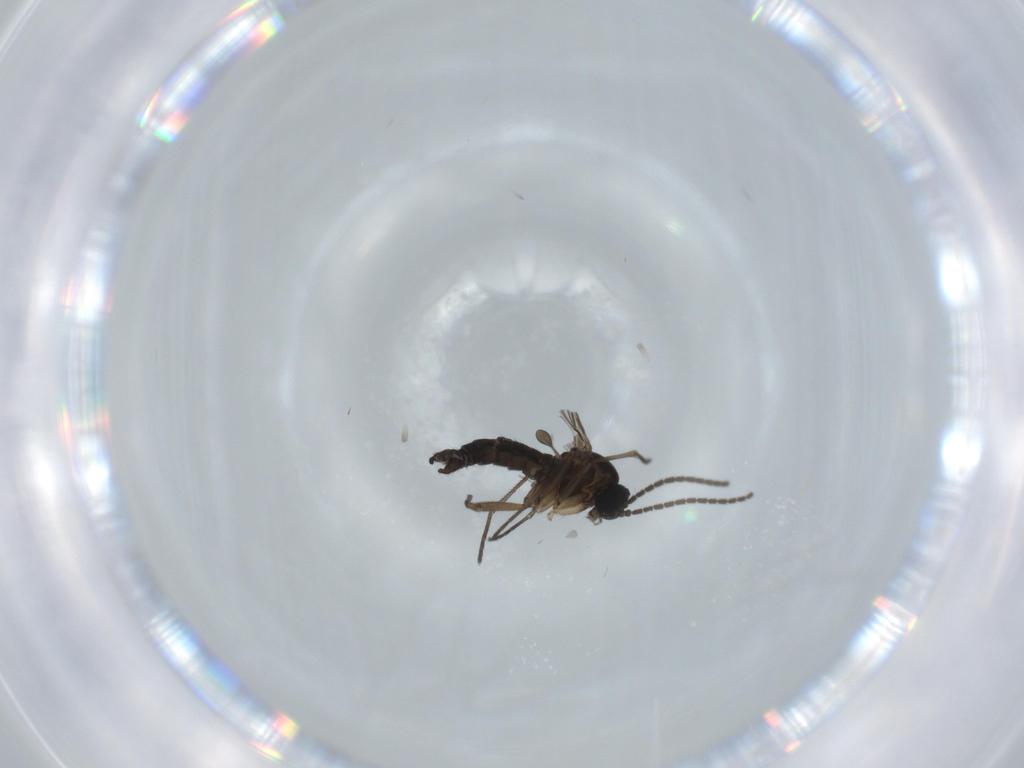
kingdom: Animalia
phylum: Arthropoda
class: Insecta
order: Diptera
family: Sciaridae
